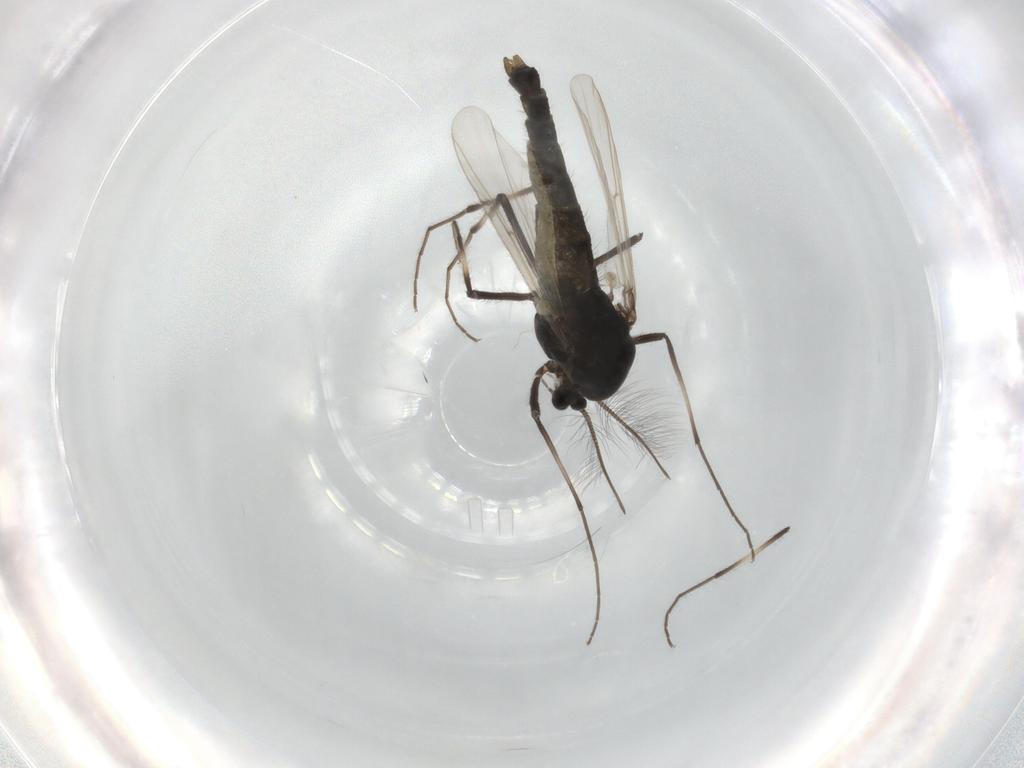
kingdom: Animalia
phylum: Arthropoda
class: Insecta
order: Diptera
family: Chironomidae
